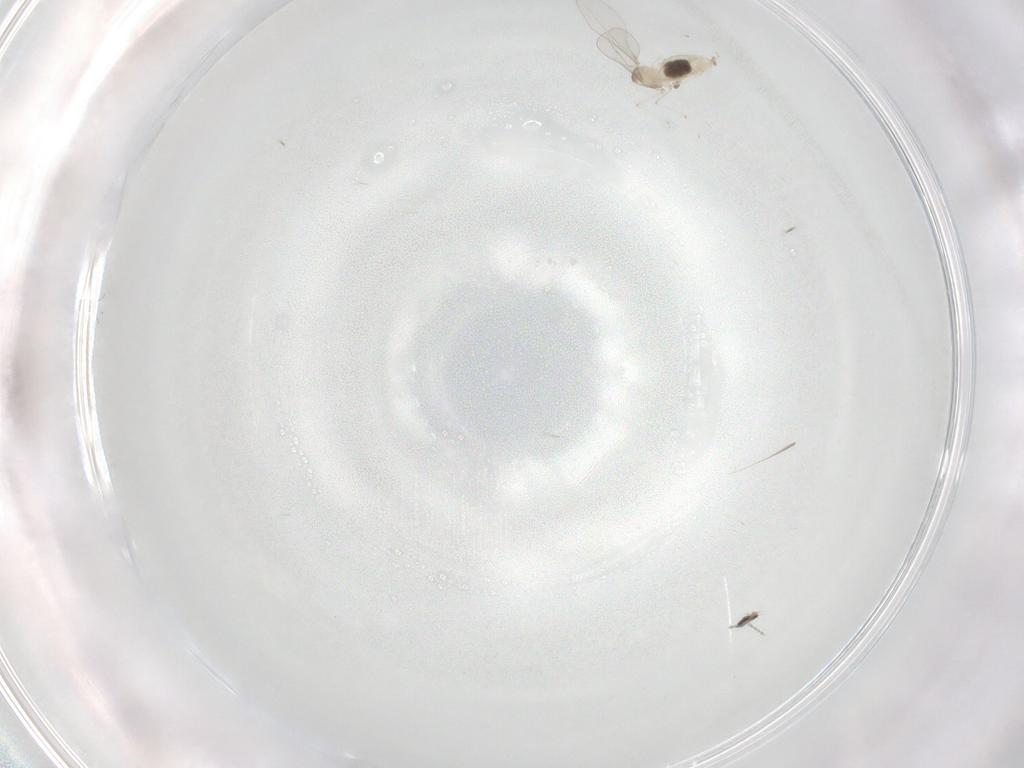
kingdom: Animalia
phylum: Arthropoda
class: Insecta
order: Diptera
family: Phoridae
